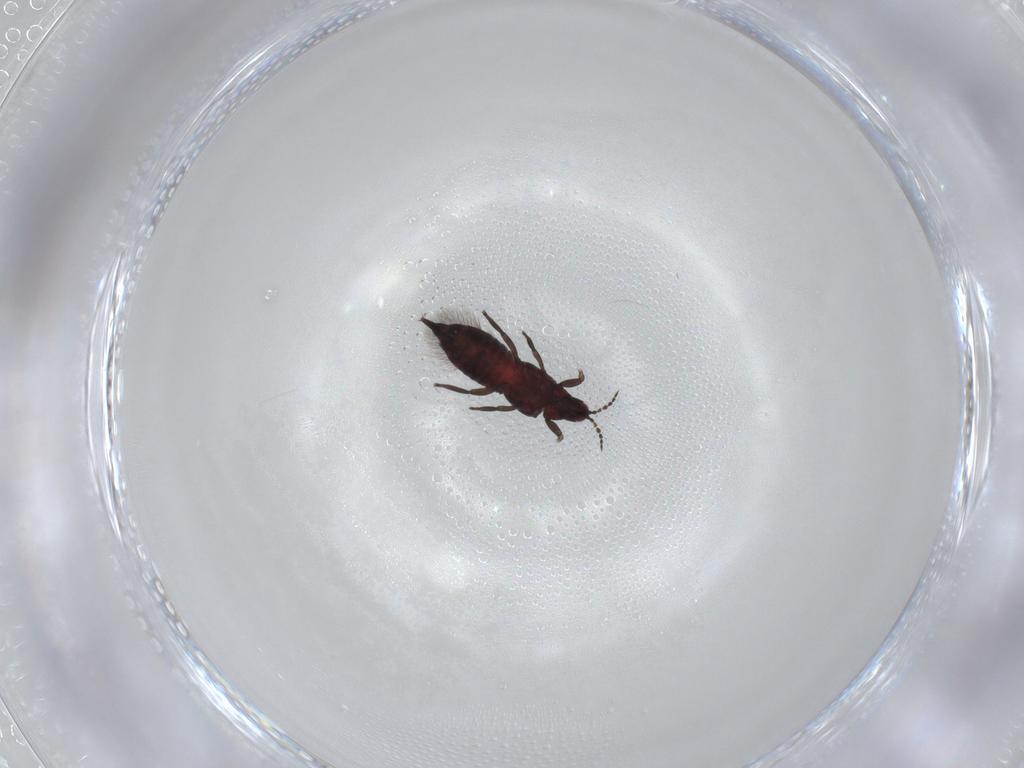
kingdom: Animalia
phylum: Arthropoda
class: Insecta
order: Thysanoptera
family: Phlaeothripidae
